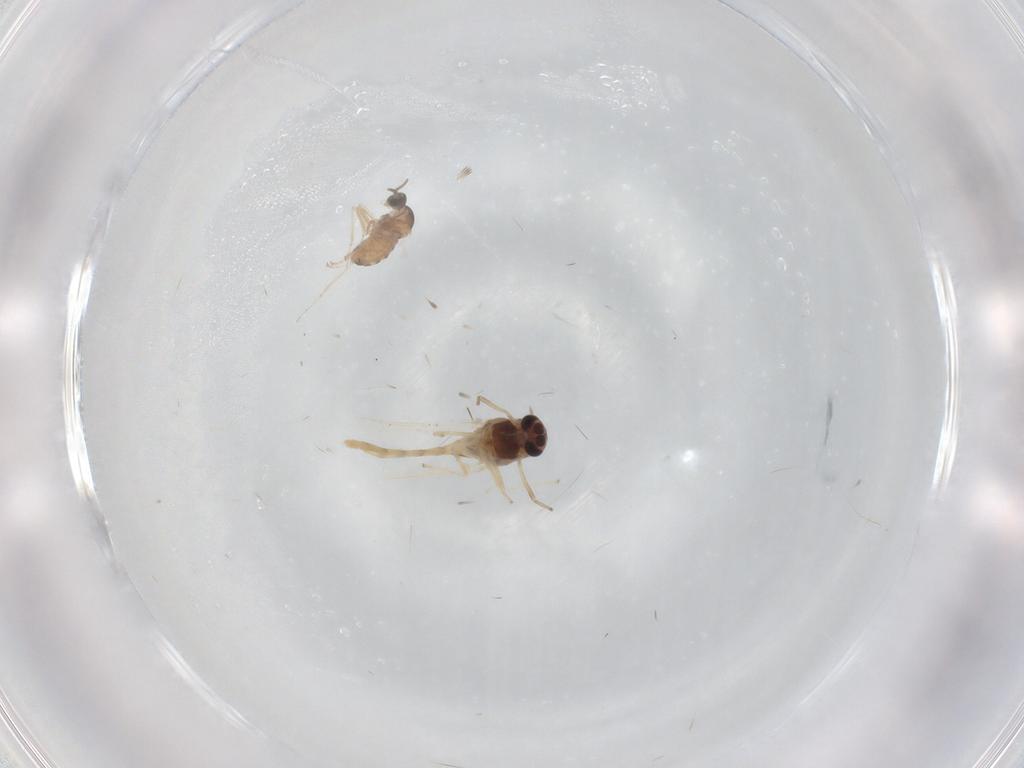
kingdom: Animalia
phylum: Arthropoda
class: Insecta
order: Diptera
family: Chironomidae
